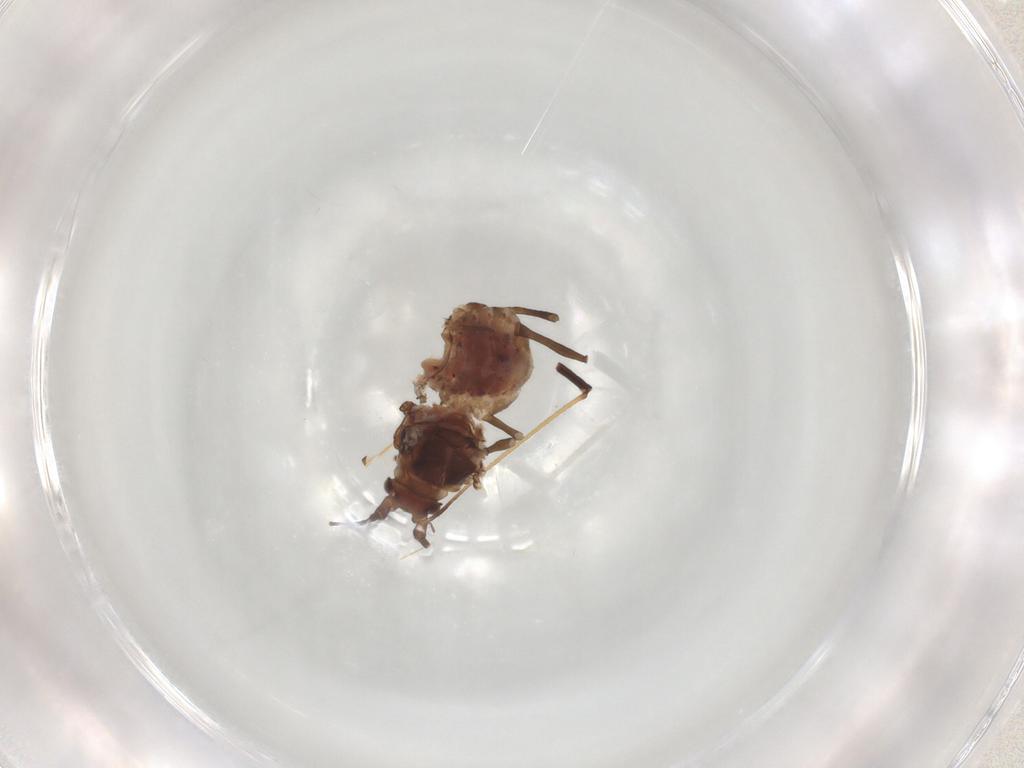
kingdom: Animalia
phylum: Arthropoda
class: Insecta
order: Hemiptera
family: Aphididae
